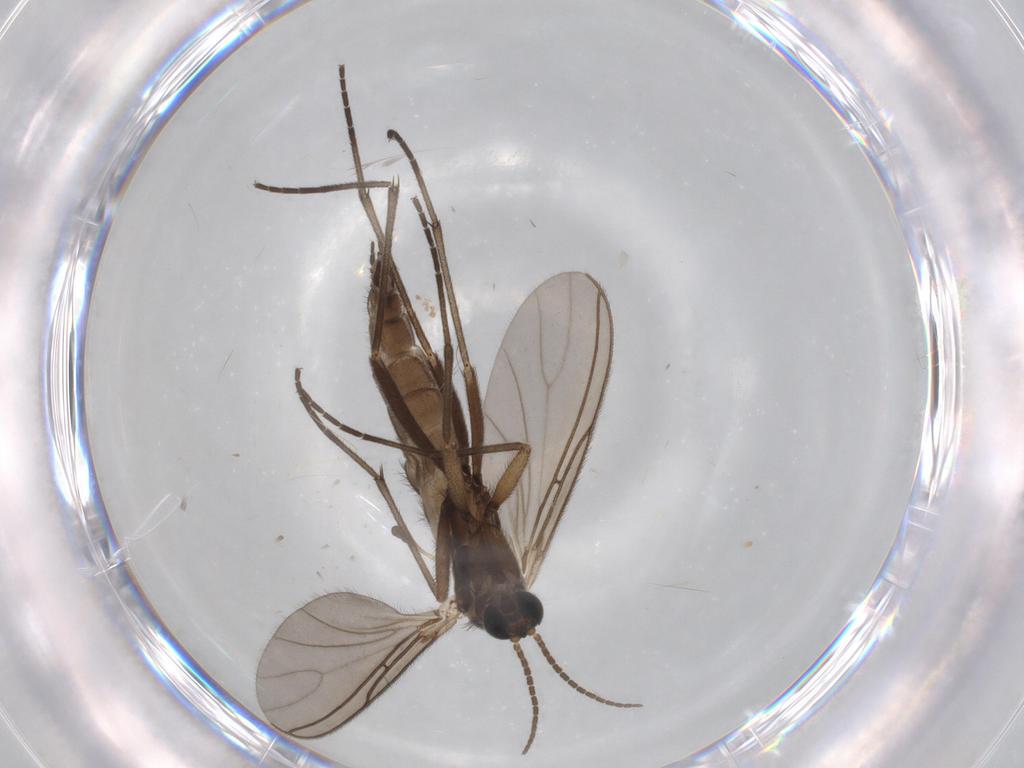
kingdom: Animalia
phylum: Arthropoda
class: Insecta
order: Diptera
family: Sciaridae
